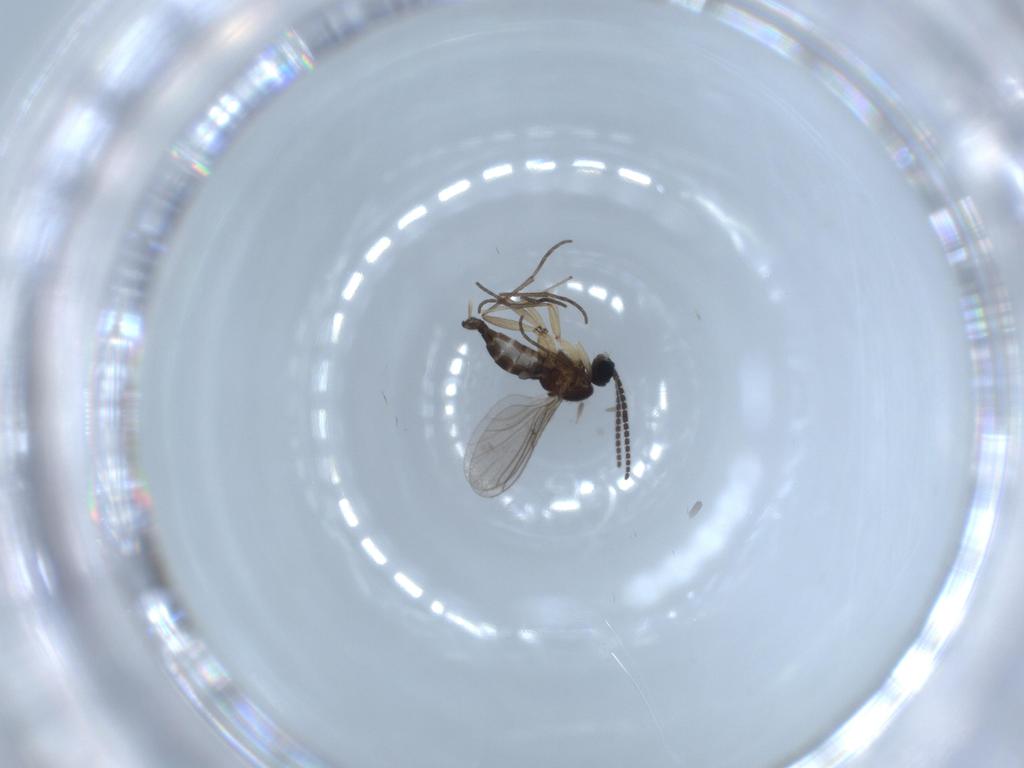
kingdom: Animalia
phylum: Arthropoda
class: Insecta
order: Diptera
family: Sciaridae
